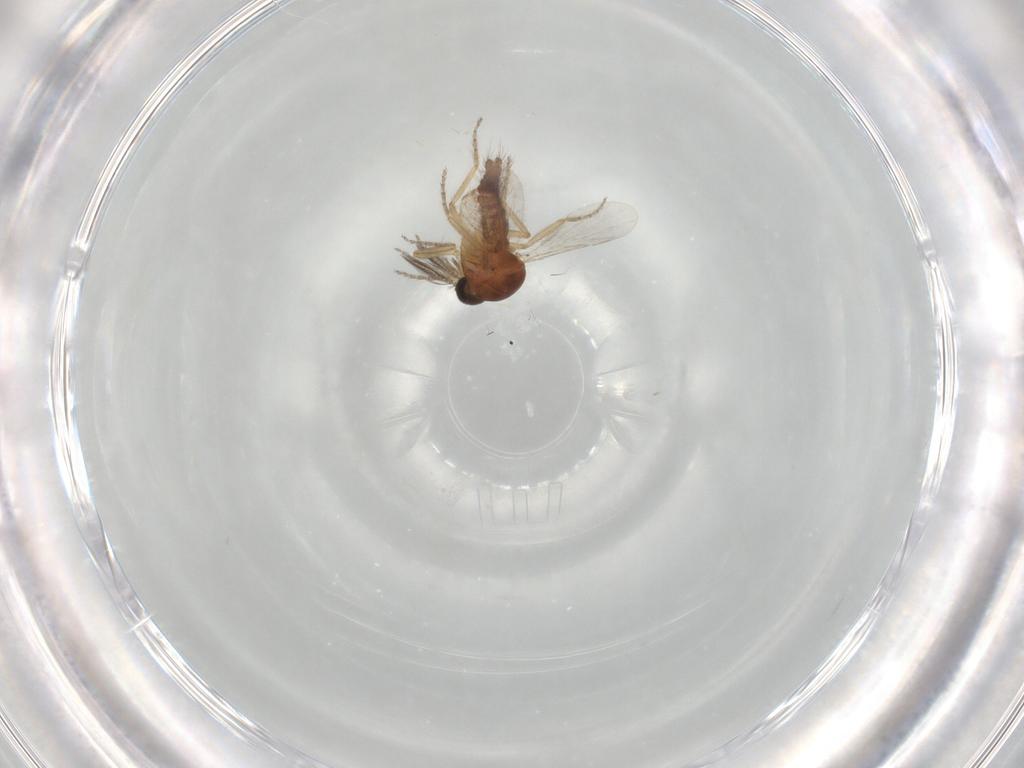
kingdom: Animalia
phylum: Arthropoda
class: Insecta
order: Diptera
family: Ceratopogonidae
